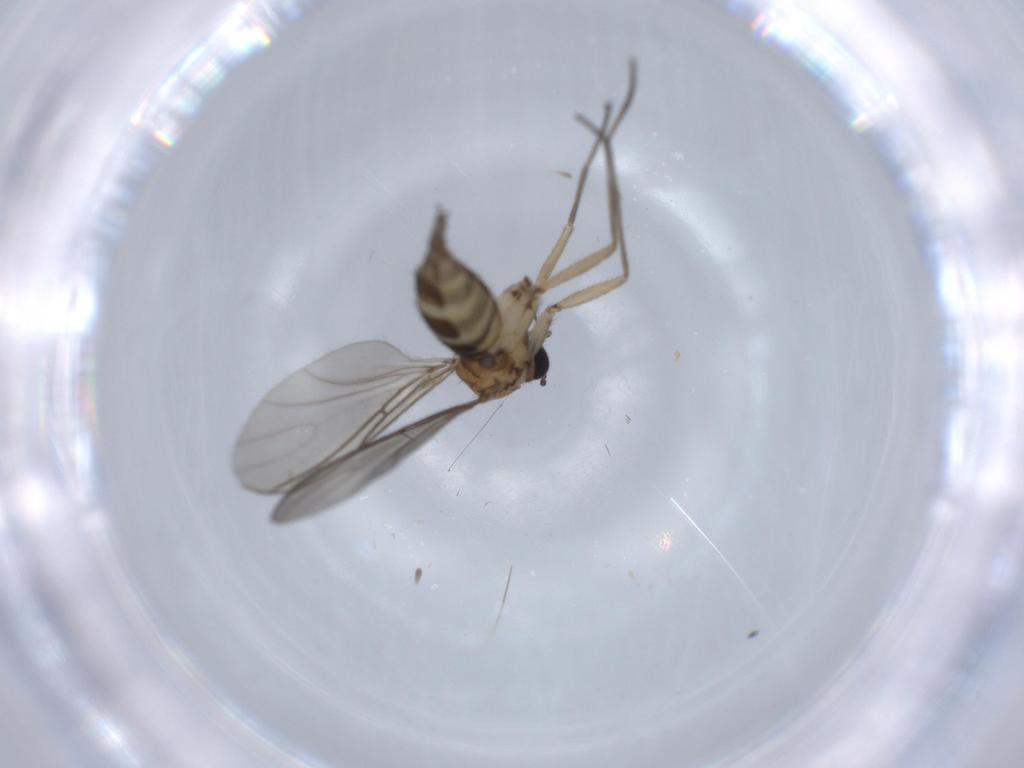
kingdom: Animalia
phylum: Arthropoda
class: Insecta
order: Diptera
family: Sciaridae
